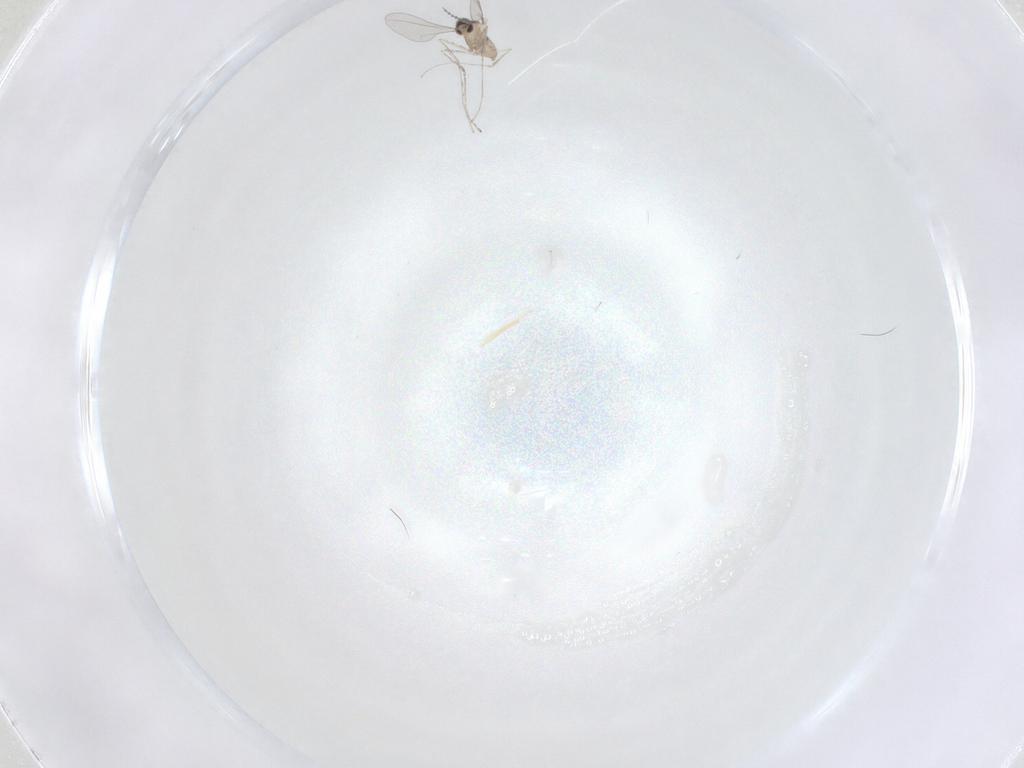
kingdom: Animalia
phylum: Arthropoda
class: Insecta
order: Diptera
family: Cecidomyiidae
